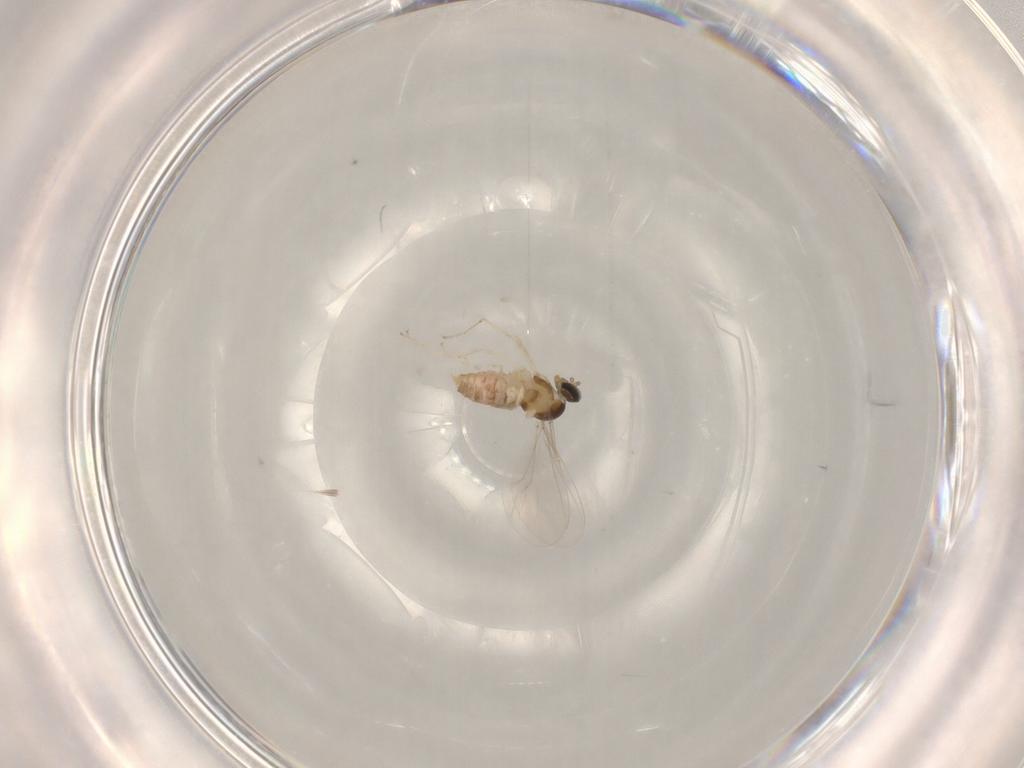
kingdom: Animalia
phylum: Arthropoda
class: Insecta
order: Diptera
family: Cecidomyiidae
